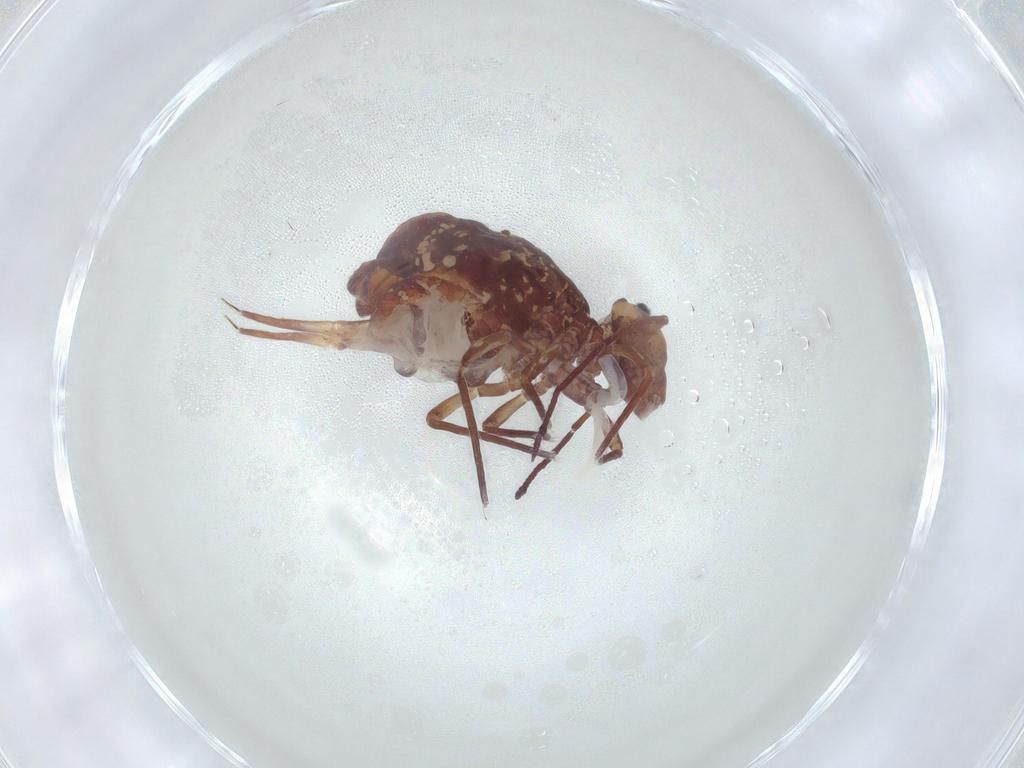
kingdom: Animalia
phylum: Arthropoda
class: Collembola
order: Symphypleona
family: Dicyrtomidae
